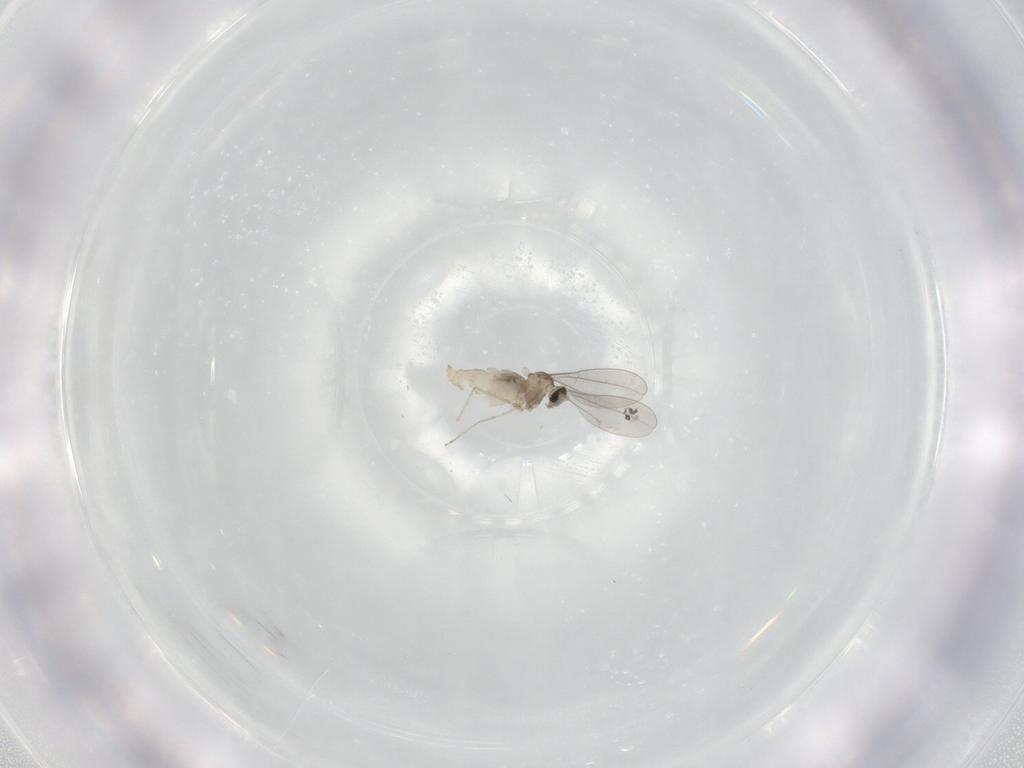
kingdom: Animalia
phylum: Arthropoda
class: Insecta
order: Diptera
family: Cecidomyiidae
